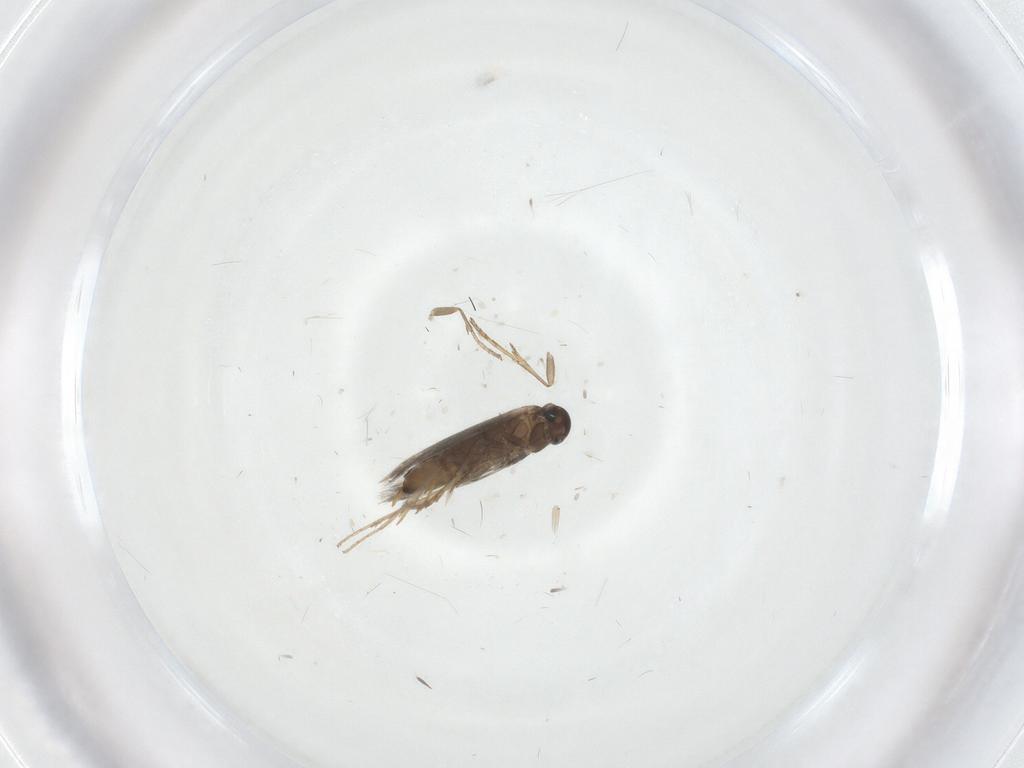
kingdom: Animalia
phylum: Arthropoda
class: Insecta
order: Lepidoptera
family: Heliozelidae
